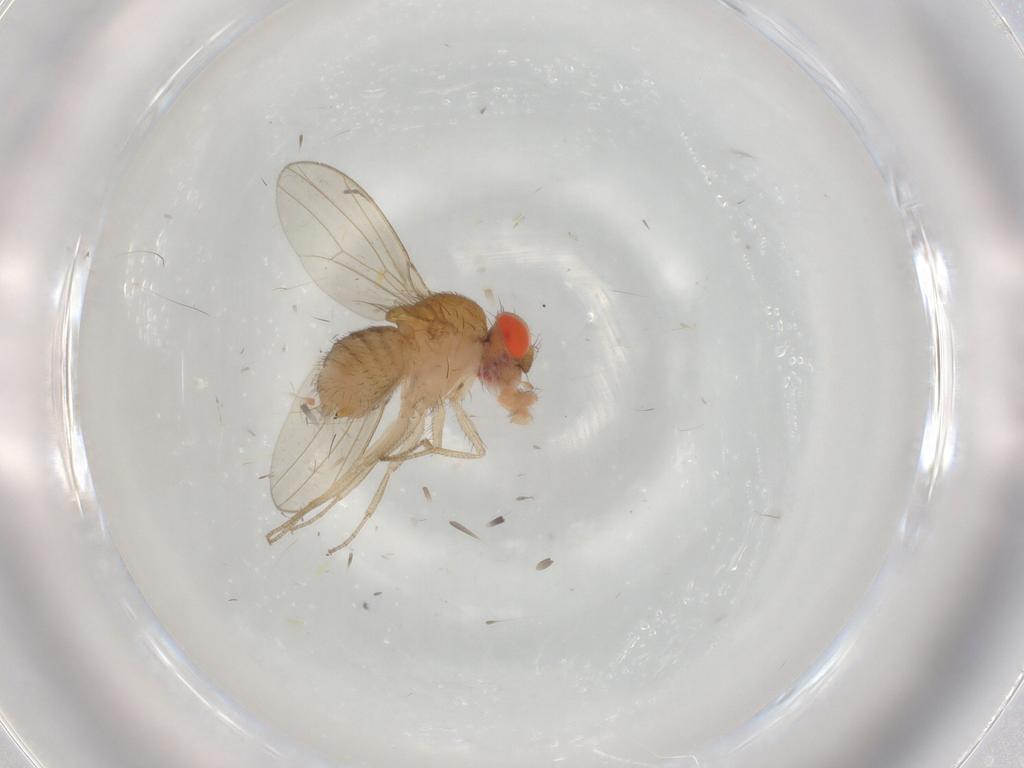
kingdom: Animalia
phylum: Arthropoda
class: Insecta
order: Diptera
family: Drosophilidae
